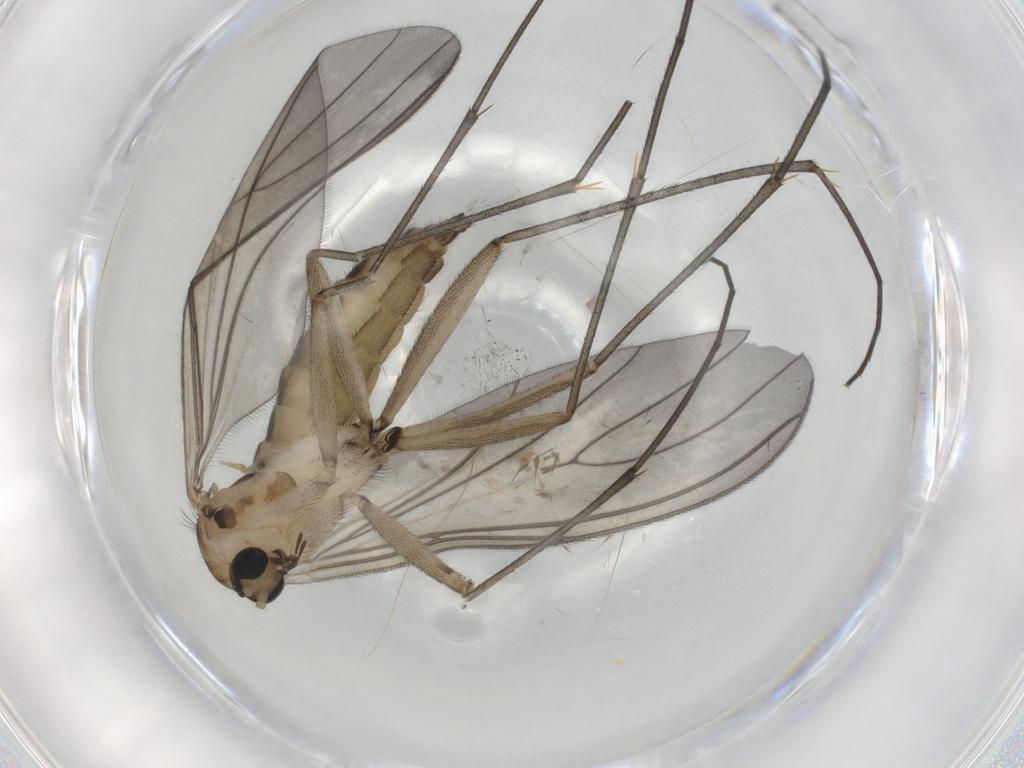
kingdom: Animalia
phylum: Arthropoda
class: Insecta
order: Diptera
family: Sciaridae
